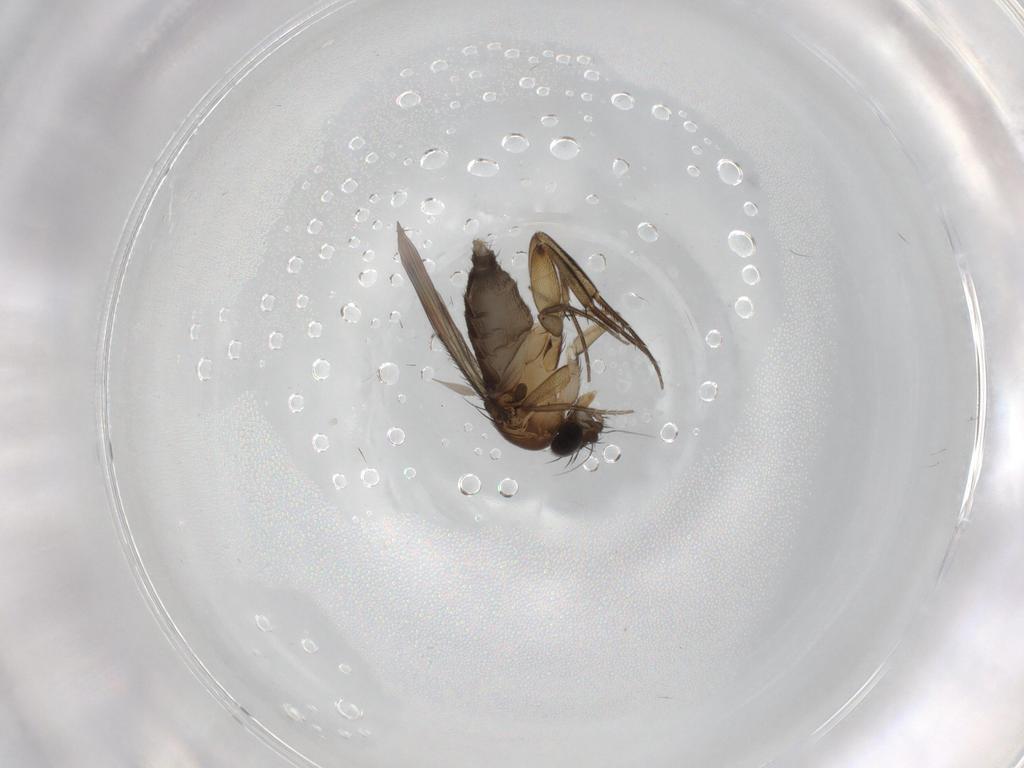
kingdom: Animalia
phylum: Arthropoda
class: Insecta
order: Diptera
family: Phoridae
